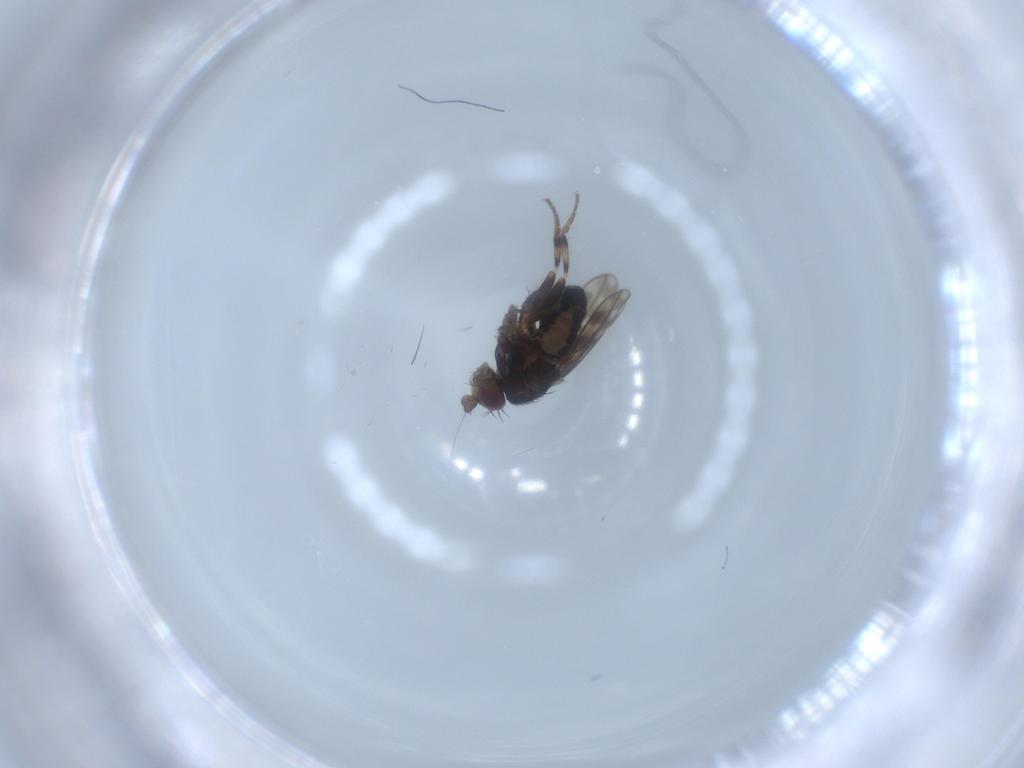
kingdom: Animalia
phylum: Arthropoda
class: Insecta
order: Diptera
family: Sphaeroceridae
